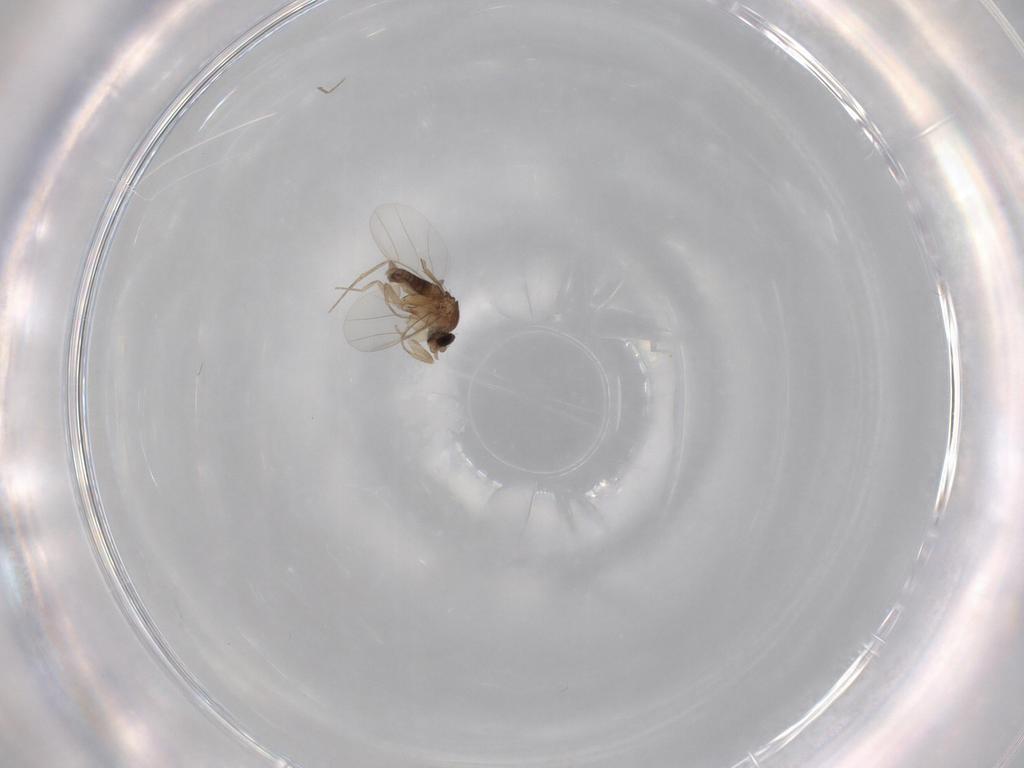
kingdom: Animalia
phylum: Arthropoda
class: Insecta
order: Diptera
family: Phoridae
